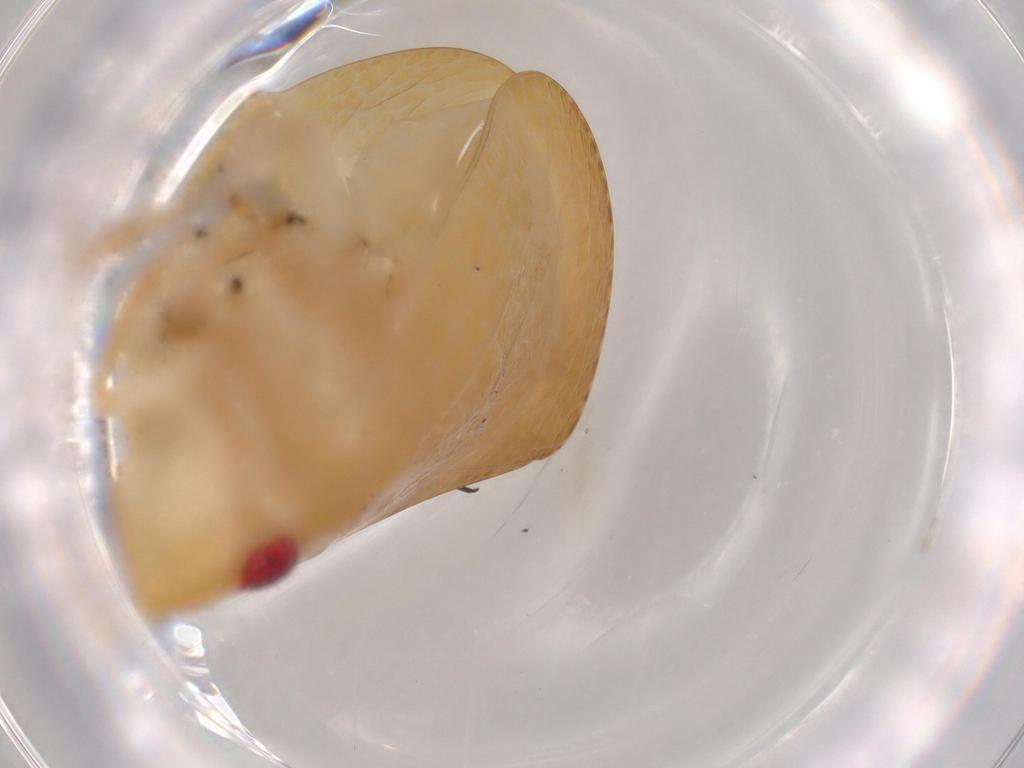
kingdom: Animalia
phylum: Arthropoda
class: Insecta
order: Hemiptera
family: Acanaloniidae
